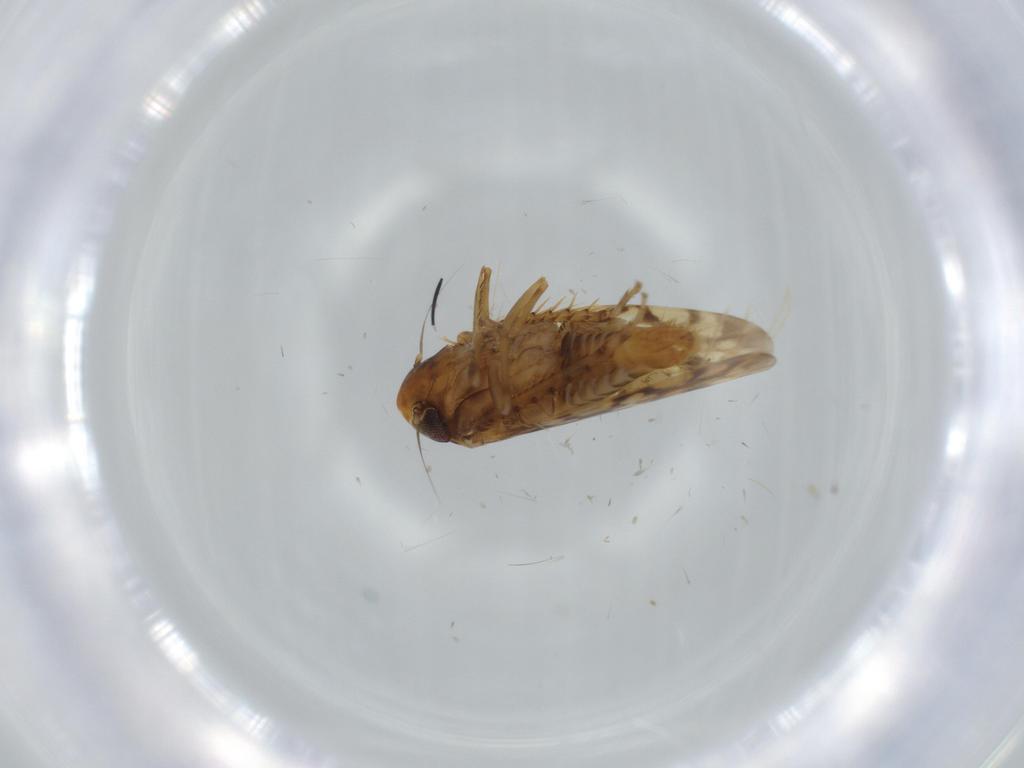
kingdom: Animalia
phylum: Arthropoda
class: Insecta
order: Hemiptera
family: Cicadellidae
